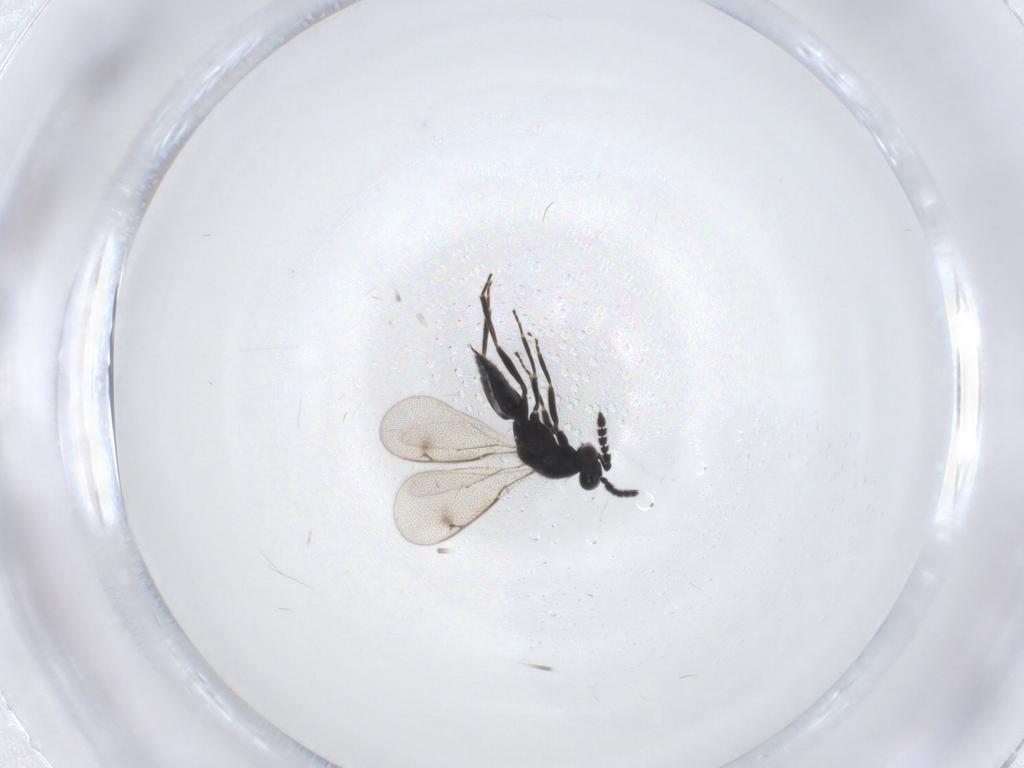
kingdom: Animalia
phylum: Arthropoda
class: Insecta
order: Hymenoptera
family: Eulophidae
